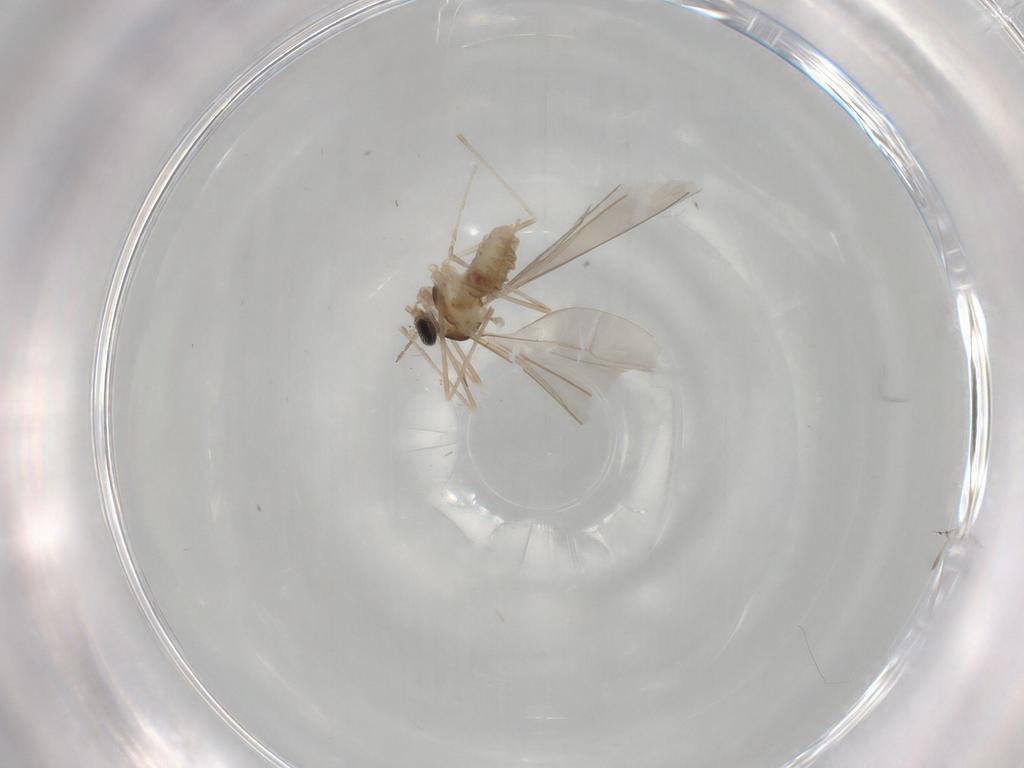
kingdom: Animalia
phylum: Arthropoda
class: Insecta
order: Diptera
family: Cecidomyiidae
